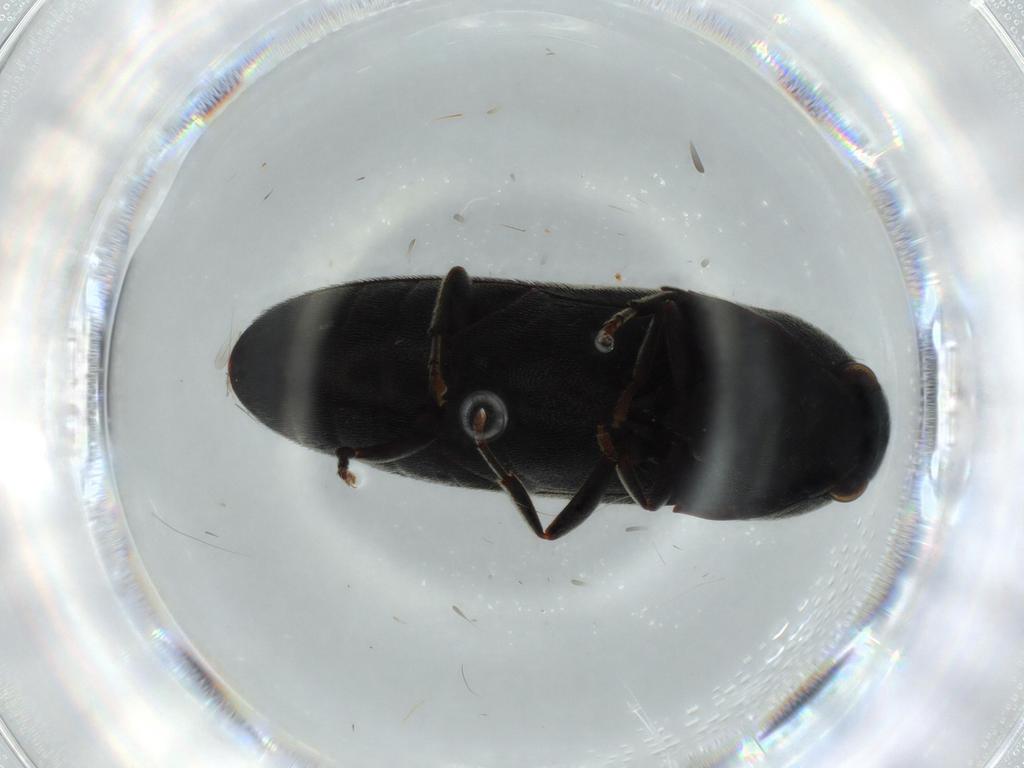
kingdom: Animalia
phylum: Arthropoda
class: Insecta
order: Coleoptera
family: Eucnemidae
